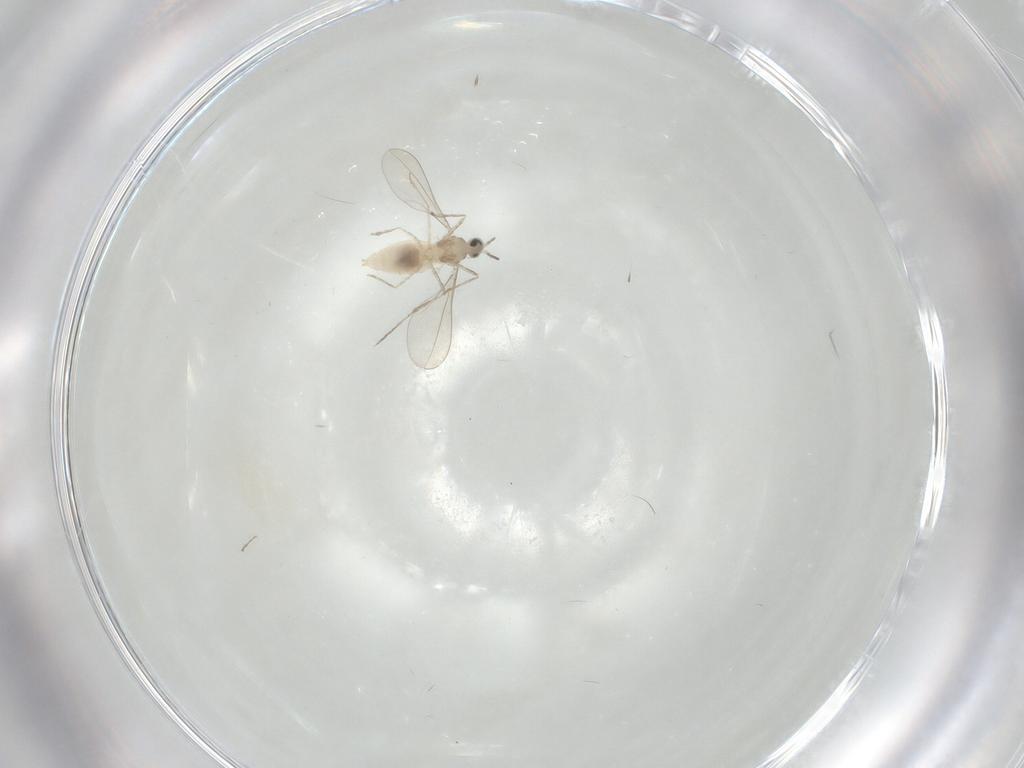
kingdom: Animalia
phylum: Arthropoda
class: Insecta
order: Diptera
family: Cecidomyiidae
